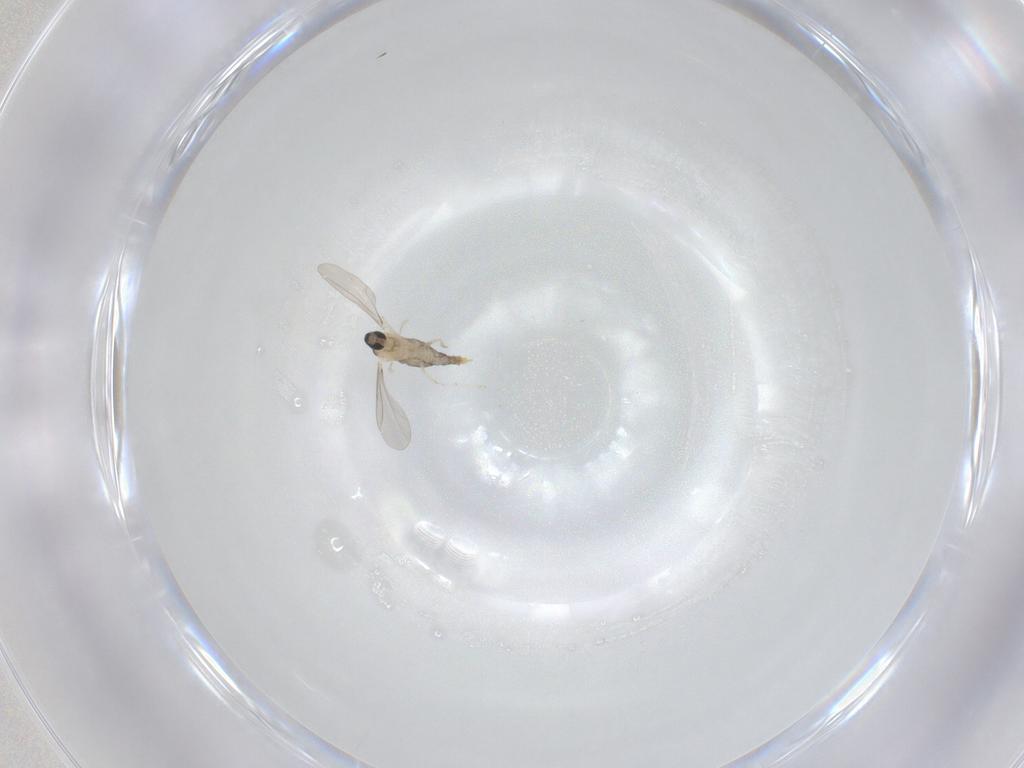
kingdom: Animalia
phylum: Arthropoda
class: Insecta
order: Diptera
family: Cecidomyiidae
